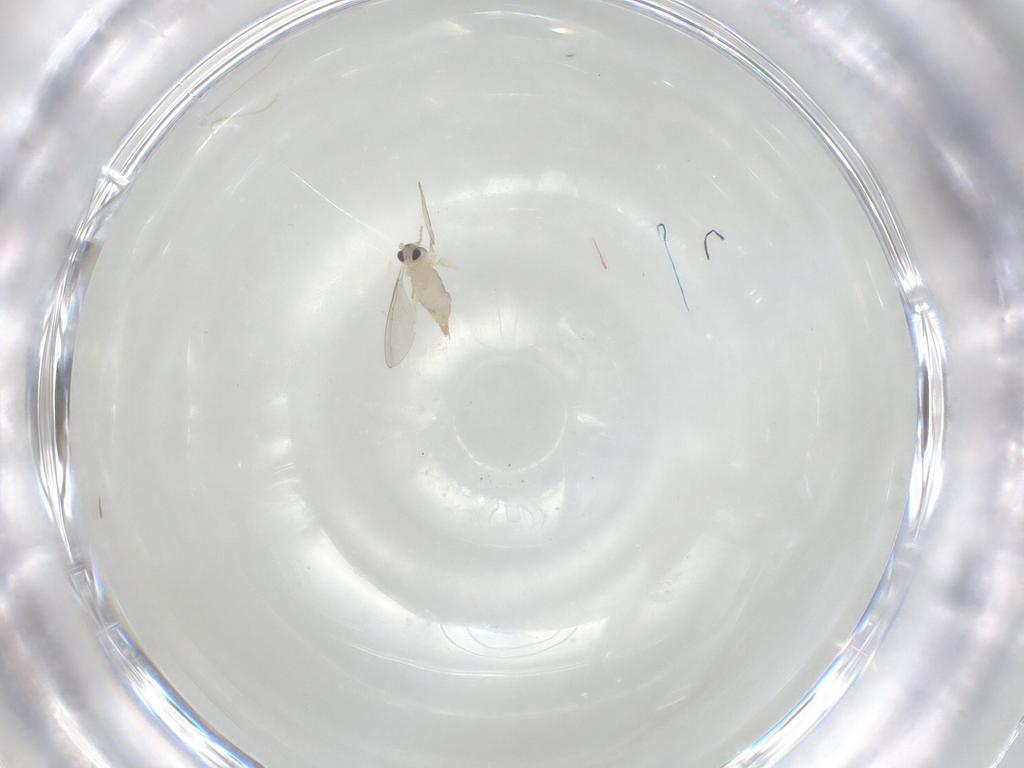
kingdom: Animalia
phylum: Arthropoda
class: Insecta
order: Diptera
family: Cecidomyiidae
